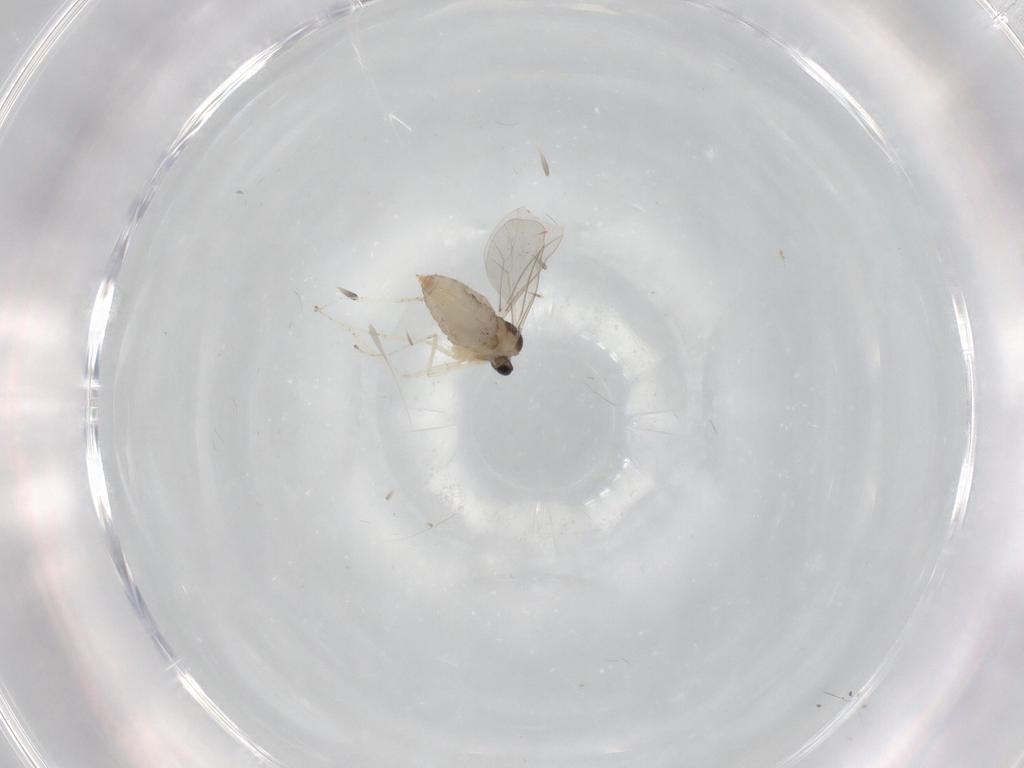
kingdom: Animalia
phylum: Arthropoda
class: Insecta
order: Diptera
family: Cecidomyiidae
